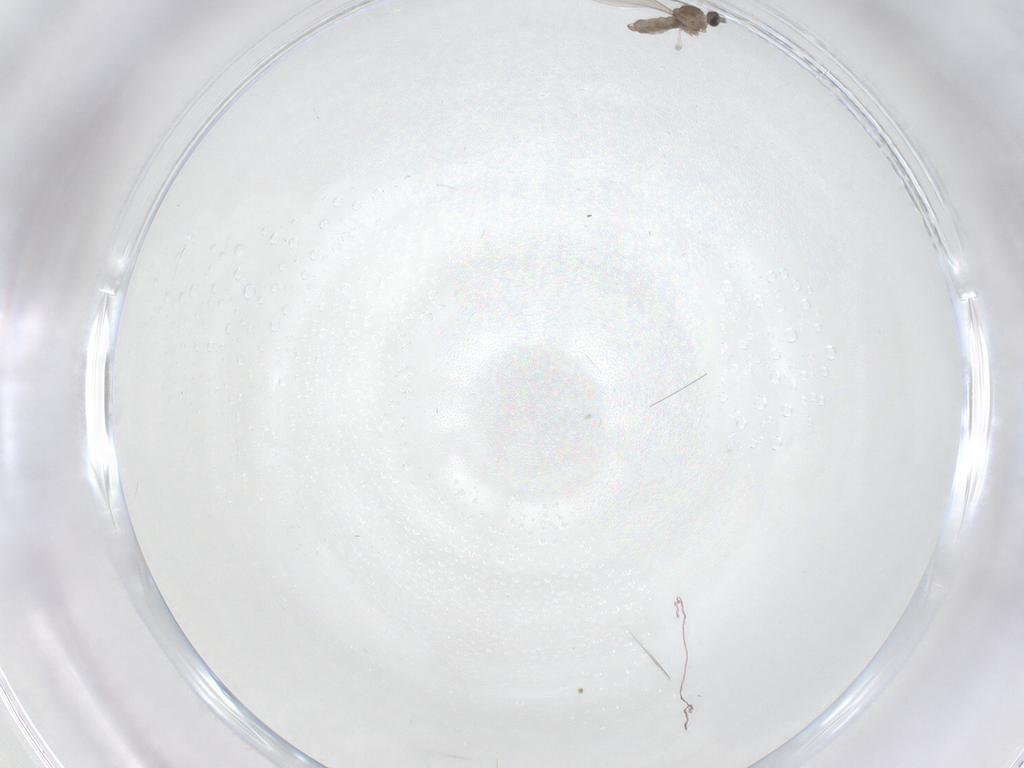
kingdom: Animalia
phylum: Arthropoda
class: Insecta
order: Diptera
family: Sciaridae
